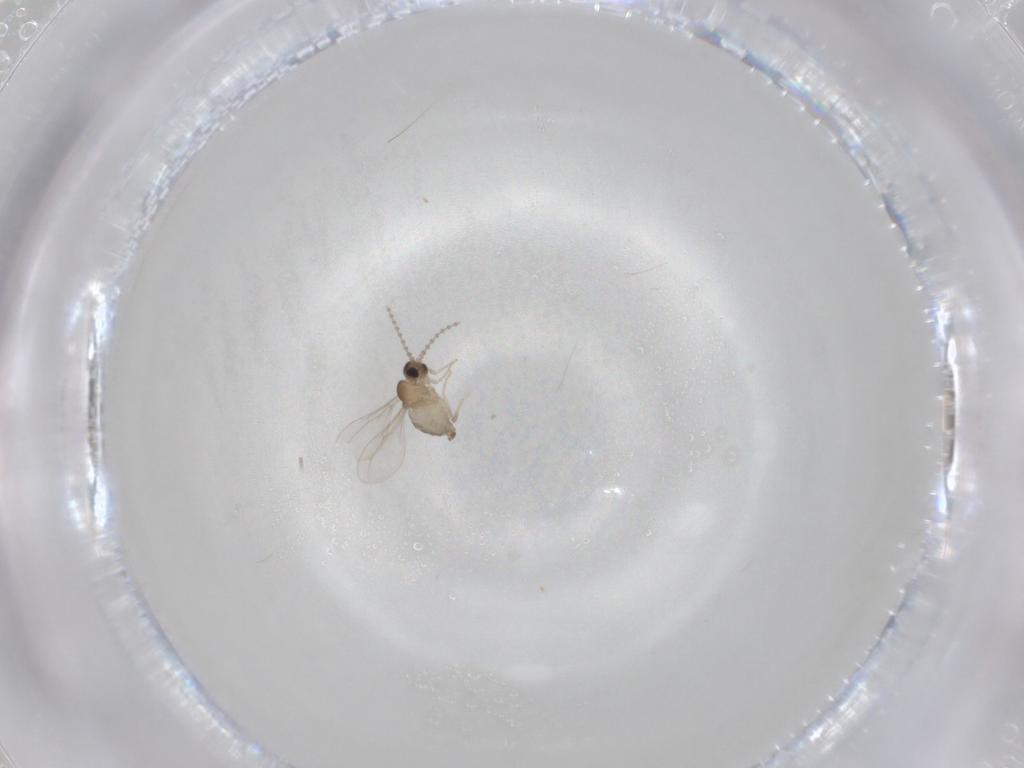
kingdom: Animalia
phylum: Arthropoda
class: Insecta
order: Diptera
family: Cecidomyiidae
